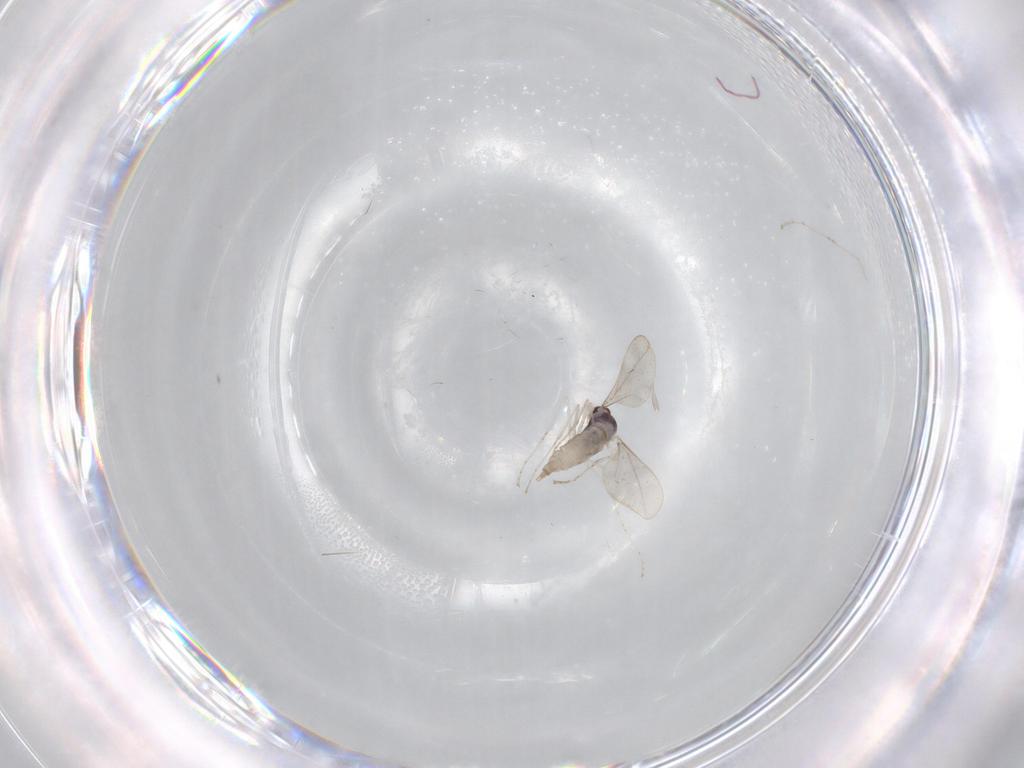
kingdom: Animalia
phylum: Arthropoda
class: Insecta
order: Diptera
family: Cecidomyiidae
